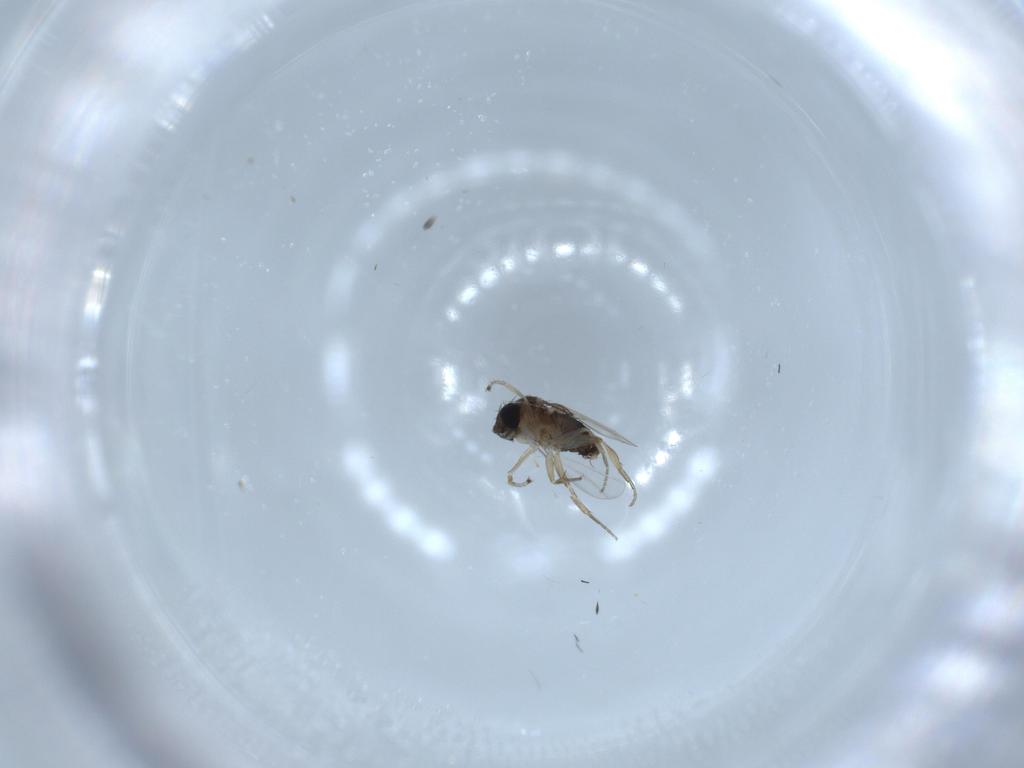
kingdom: Animalia
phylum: Arthropoda
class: Insecta
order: Diptera
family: Phoridae
